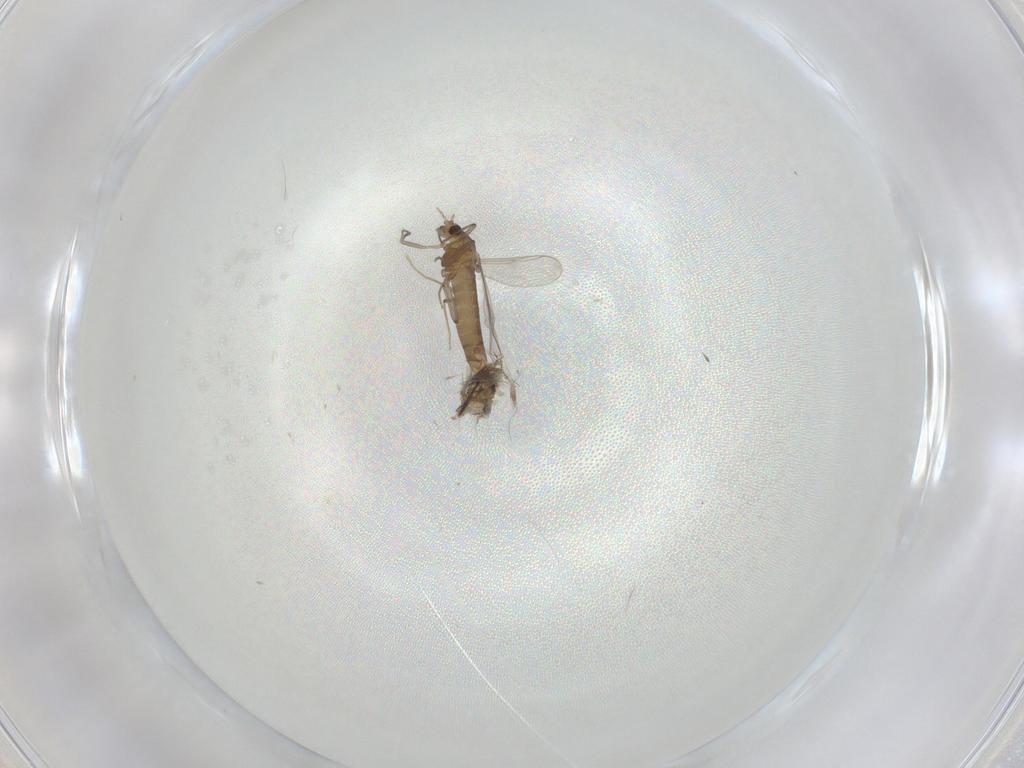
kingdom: Animalia
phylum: Arthropoda
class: Insecta
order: Diptera
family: Chironomidae
